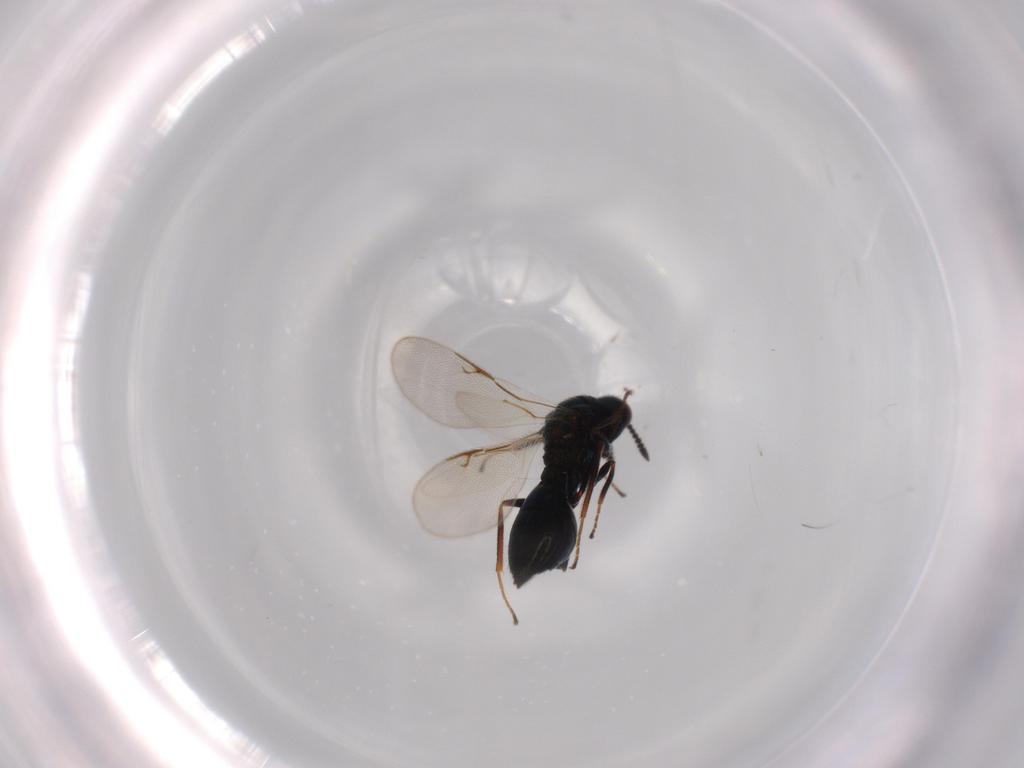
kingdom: Animalia
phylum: Arthropoda
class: Insecta
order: Hymenoptera
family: Chalcidoidea_incertae_sedis
